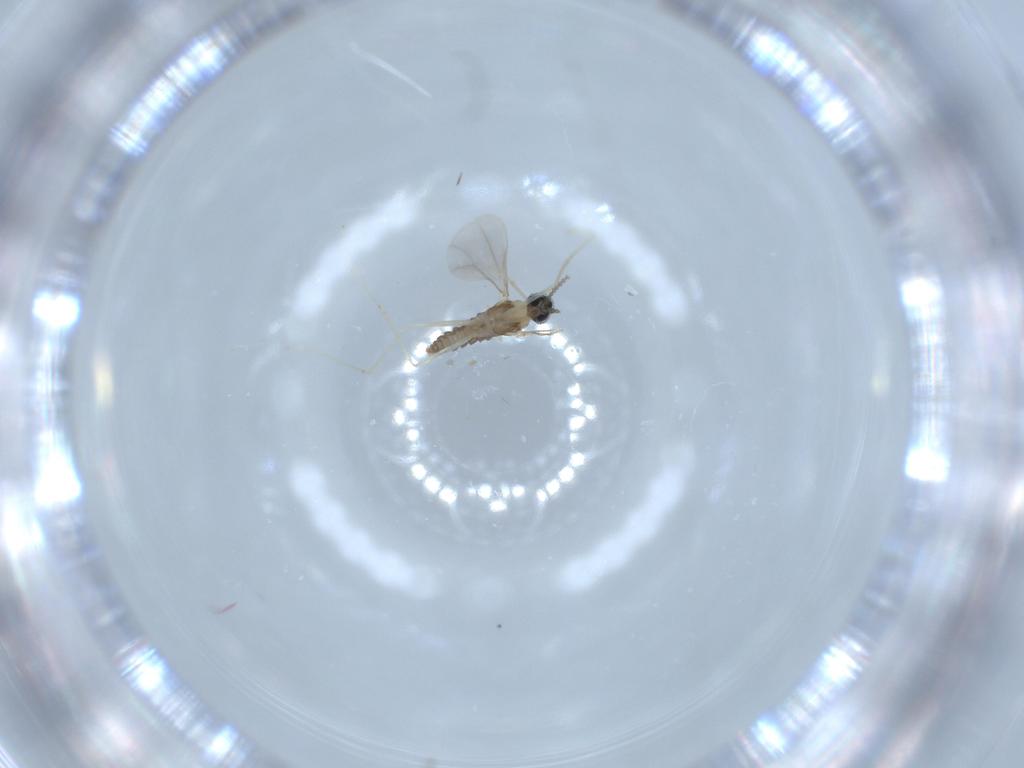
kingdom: Animalia
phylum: Arthropoda
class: Insecta
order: Diptera
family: Cecidomyiidae
